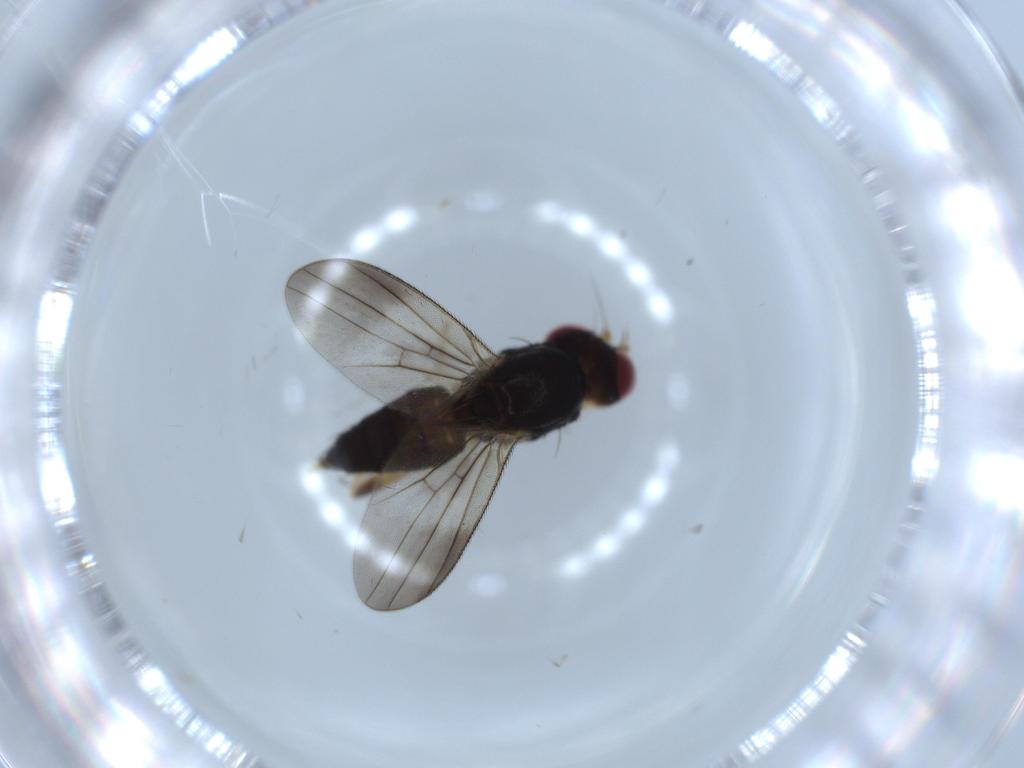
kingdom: Animalia
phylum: Arthropoda
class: Insecta
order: Diptera
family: Clusiidae
